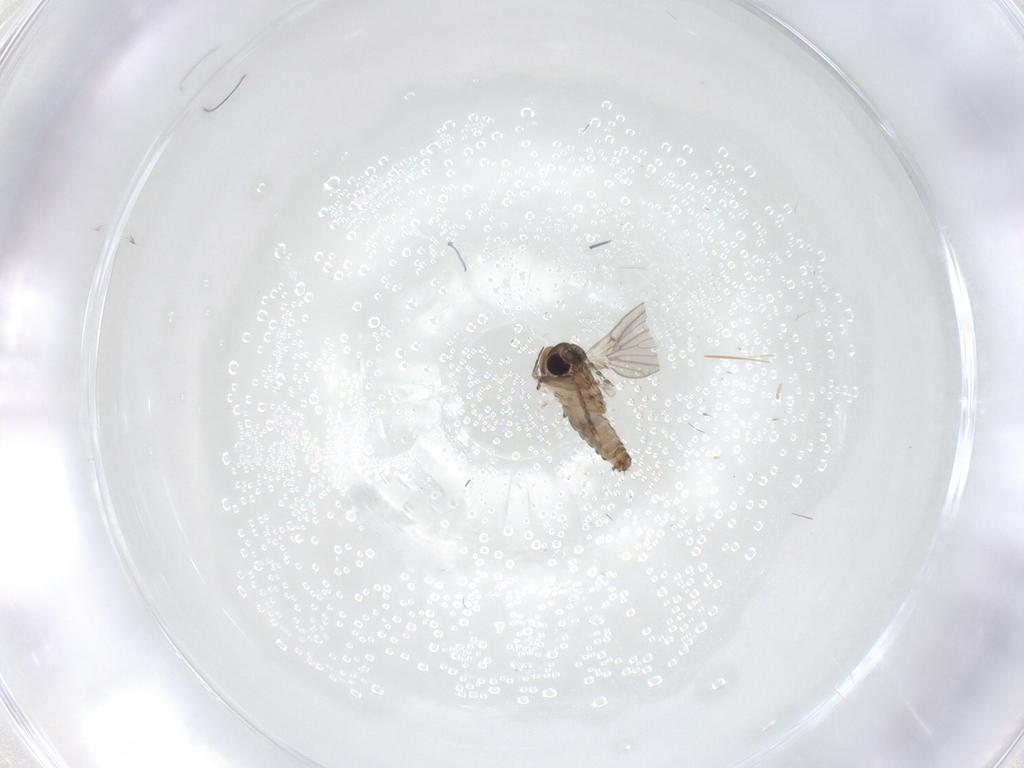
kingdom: Animalia
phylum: Arthropoda
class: Insecta
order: Diptera
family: Psychodidae
